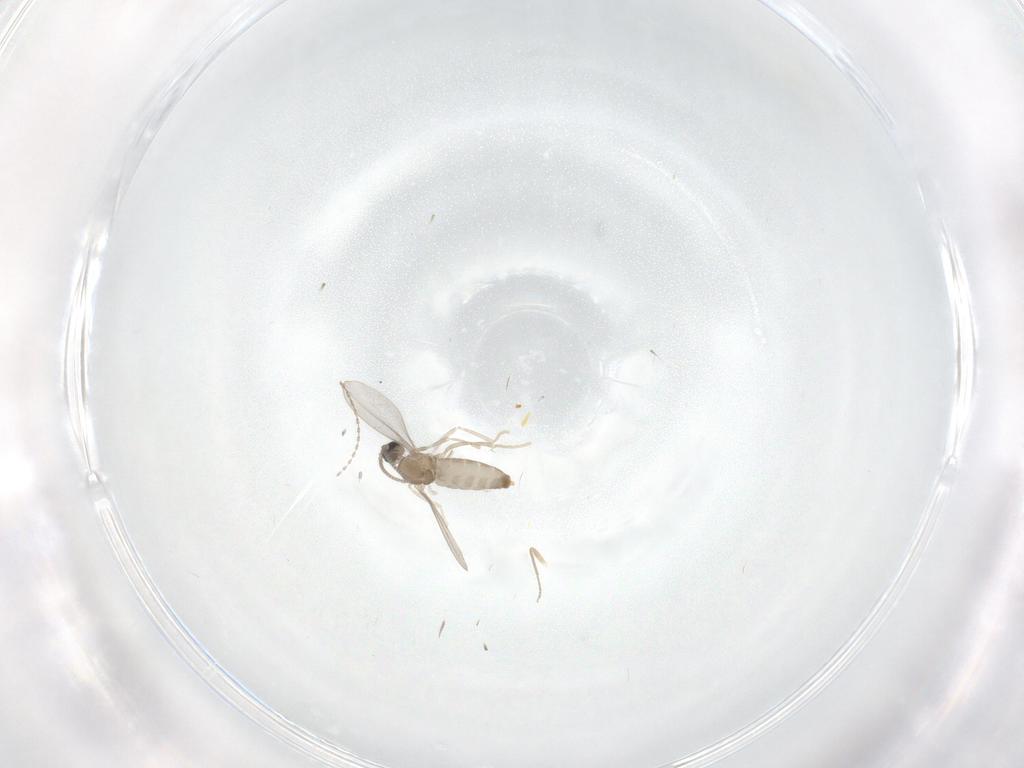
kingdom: Animalia
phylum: Arthropoda
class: Insecta
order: Diptera
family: Cecidomyiidae
